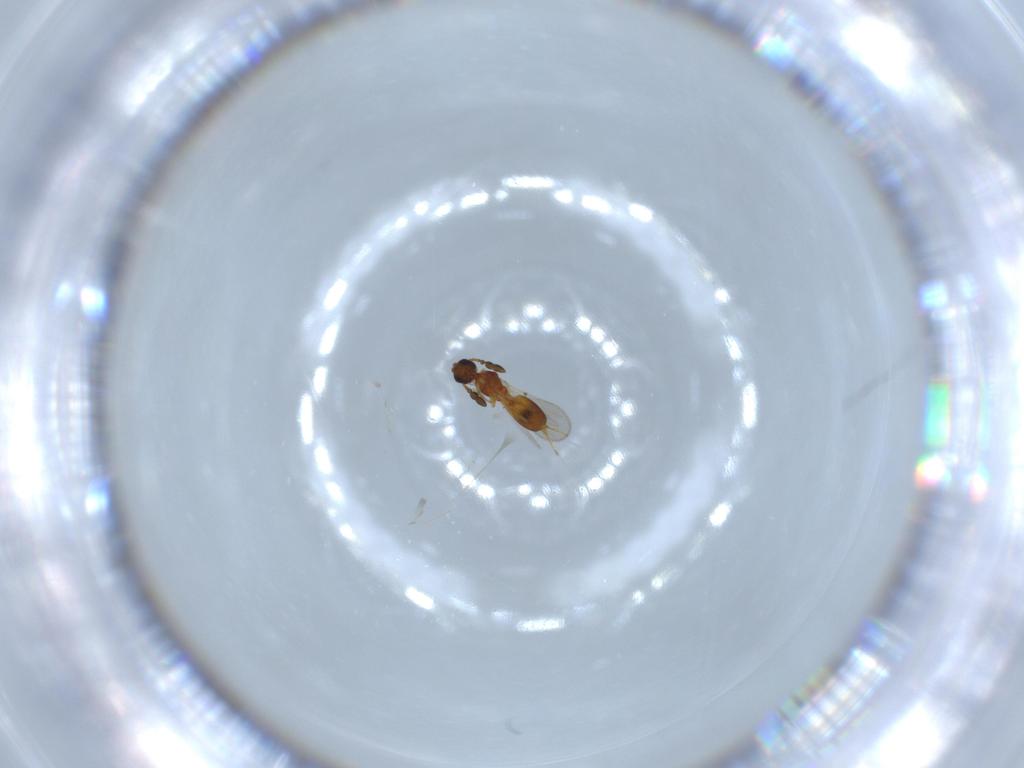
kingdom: Animalia
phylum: Arthropoda
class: Insecta
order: Hymenoptera
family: Diapriidae
